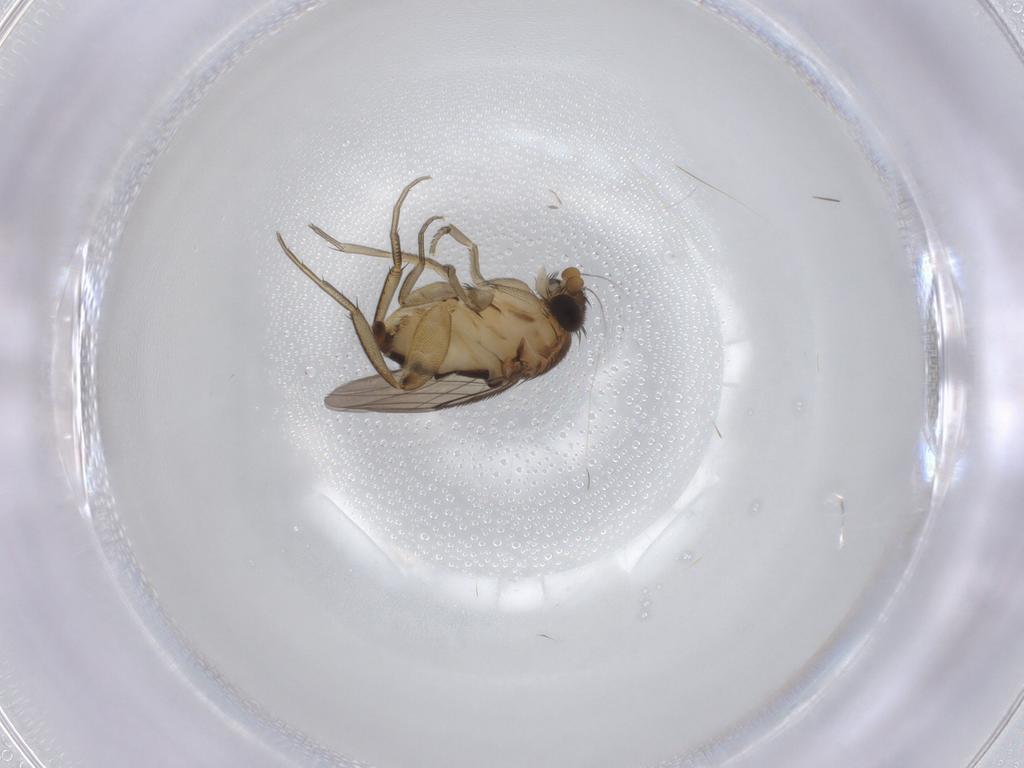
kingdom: Animalia
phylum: Arthropoda
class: Insecta
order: Diptera
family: Phoridae
